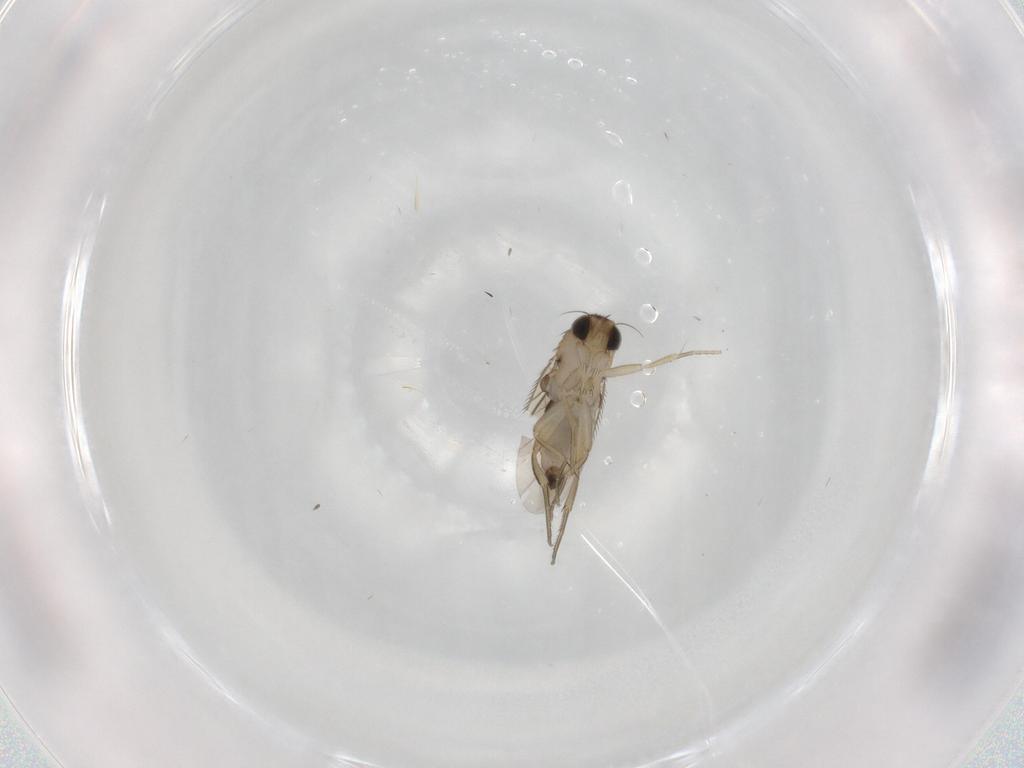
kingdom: Animalia
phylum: Arthropoda
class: Insecta
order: Diptera
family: Phoridae
